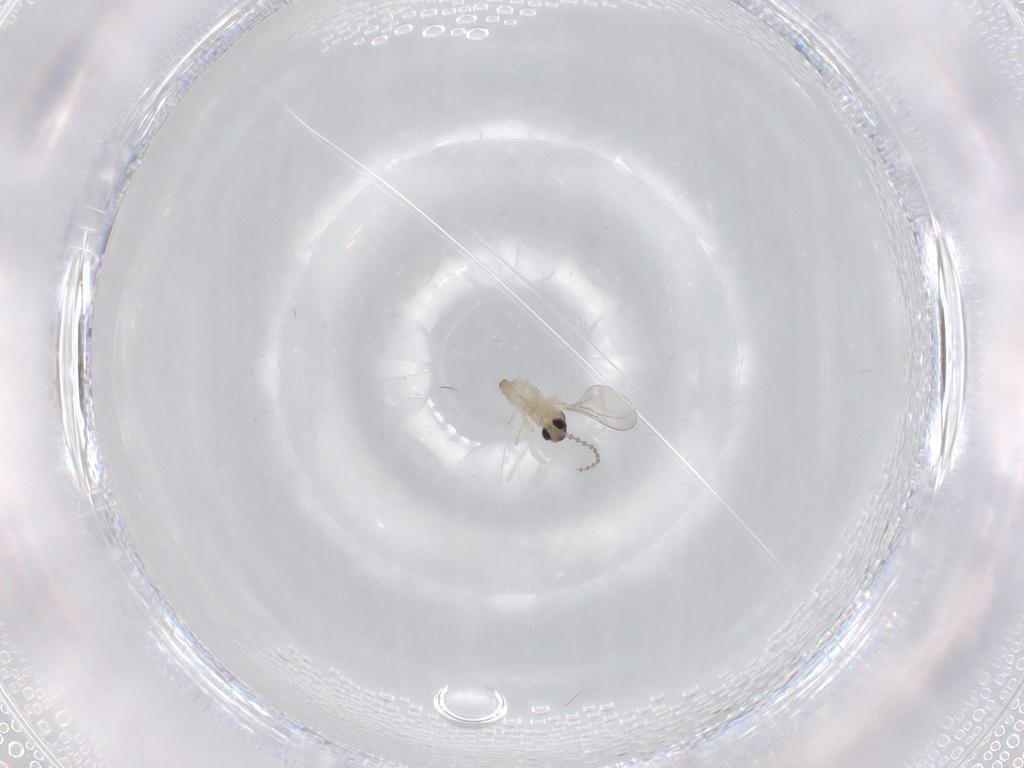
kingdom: Animalia
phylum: Arthropoda
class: Insecta
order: Diptera
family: Cecidomyiidae
